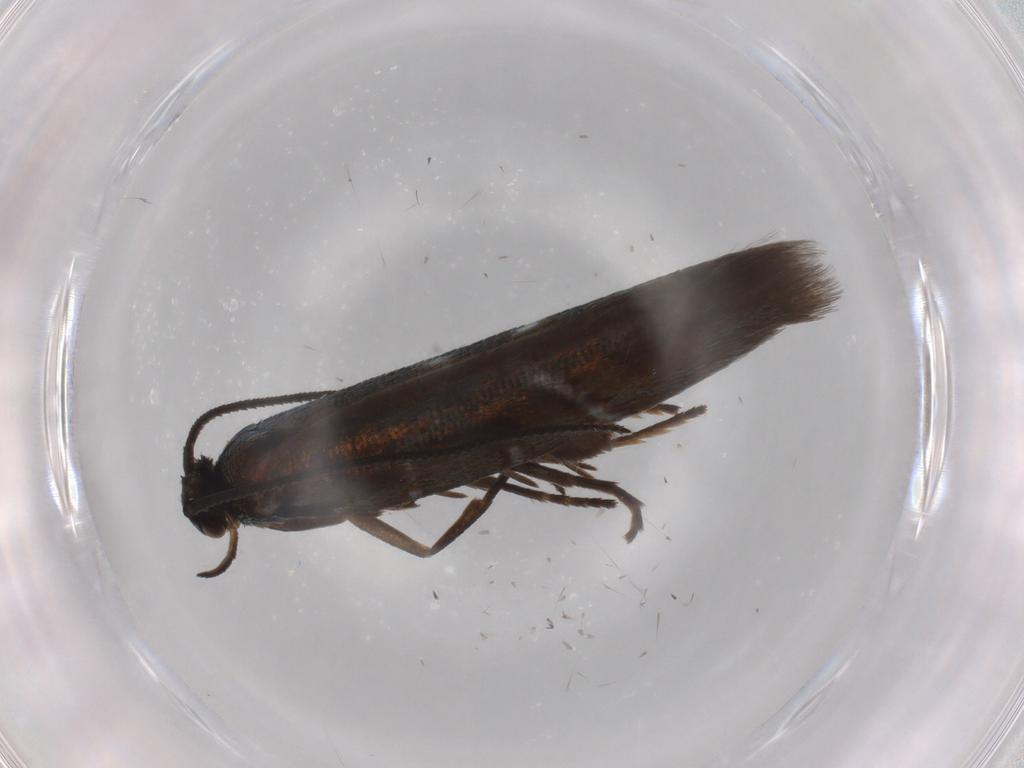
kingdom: Animalia
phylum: Arthropoda
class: Insecta
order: Lepidoptera
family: Argyresthiidae
